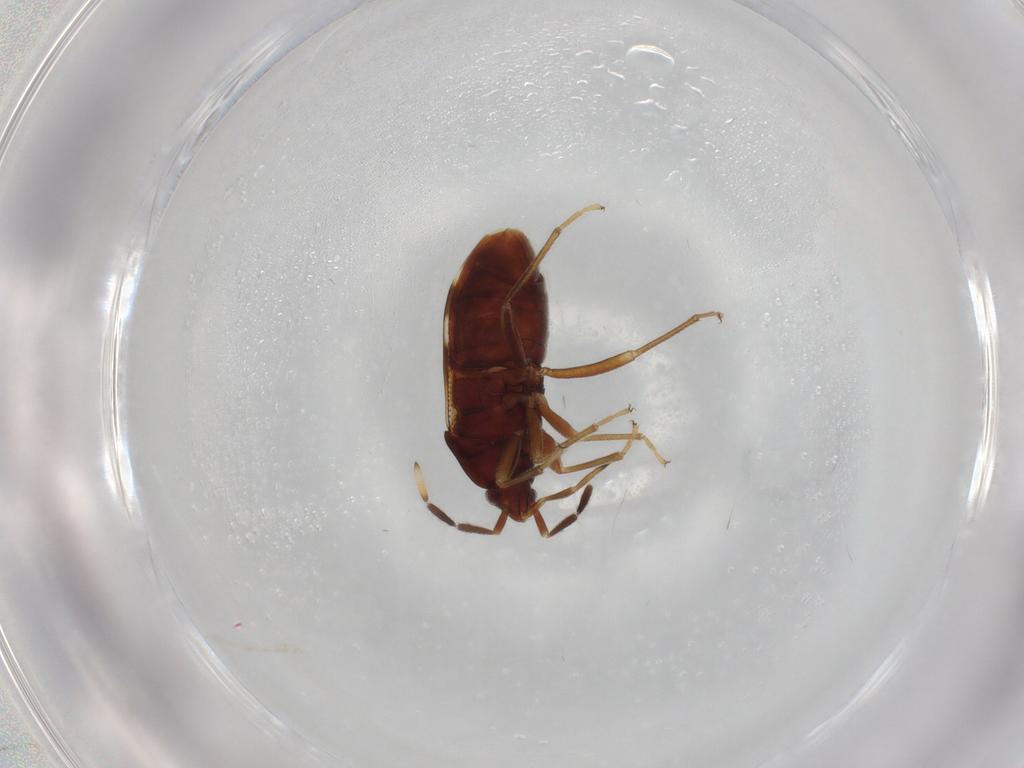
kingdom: Animalia
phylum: Arthropoda
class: Insecta
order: Hemiptera
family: Rhyparochromidae
